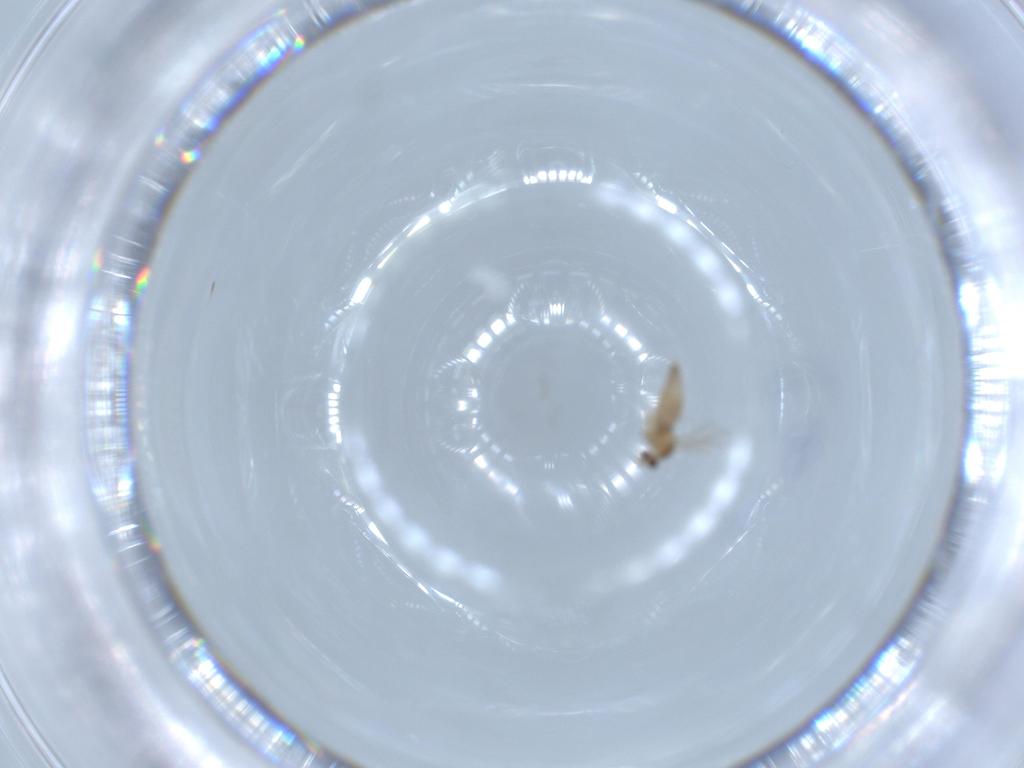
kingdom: Animalia
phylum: Arthropoda
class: Insecta
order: Diptera
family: Cecidomyiidae
